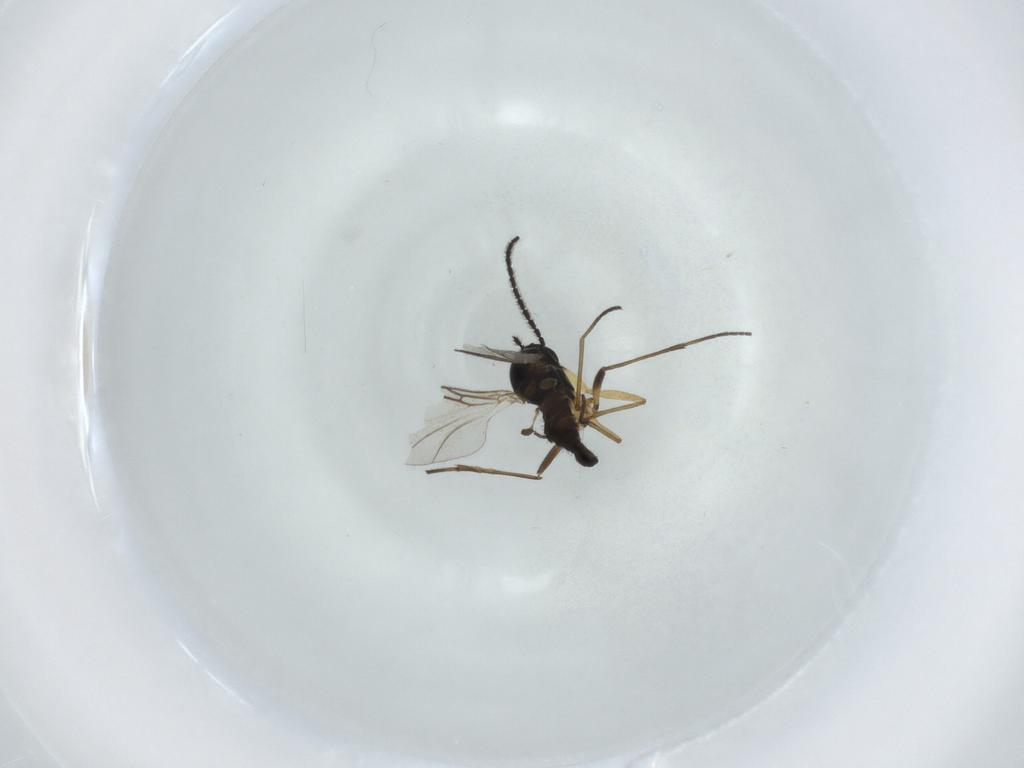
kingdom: Animalia
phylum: Arthropoda
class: Insecta
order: Diptera
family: Sciaridae
